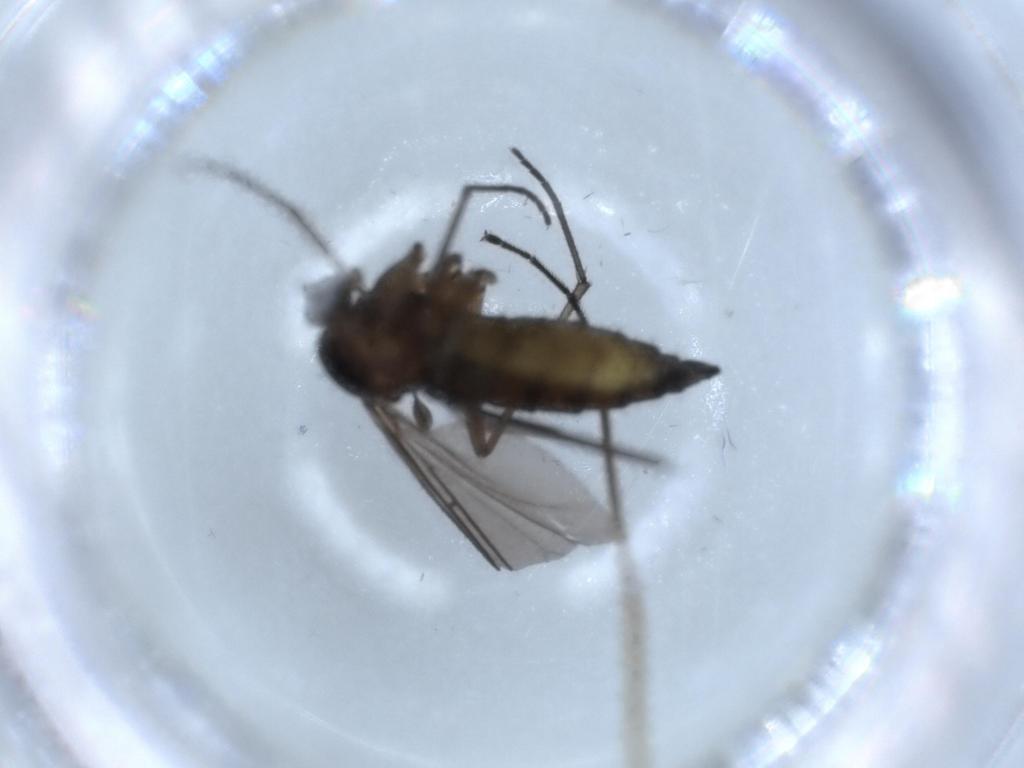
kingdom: Animalia
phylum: Arthropoda
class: Insecta
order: Diptera
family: Sciaridae
